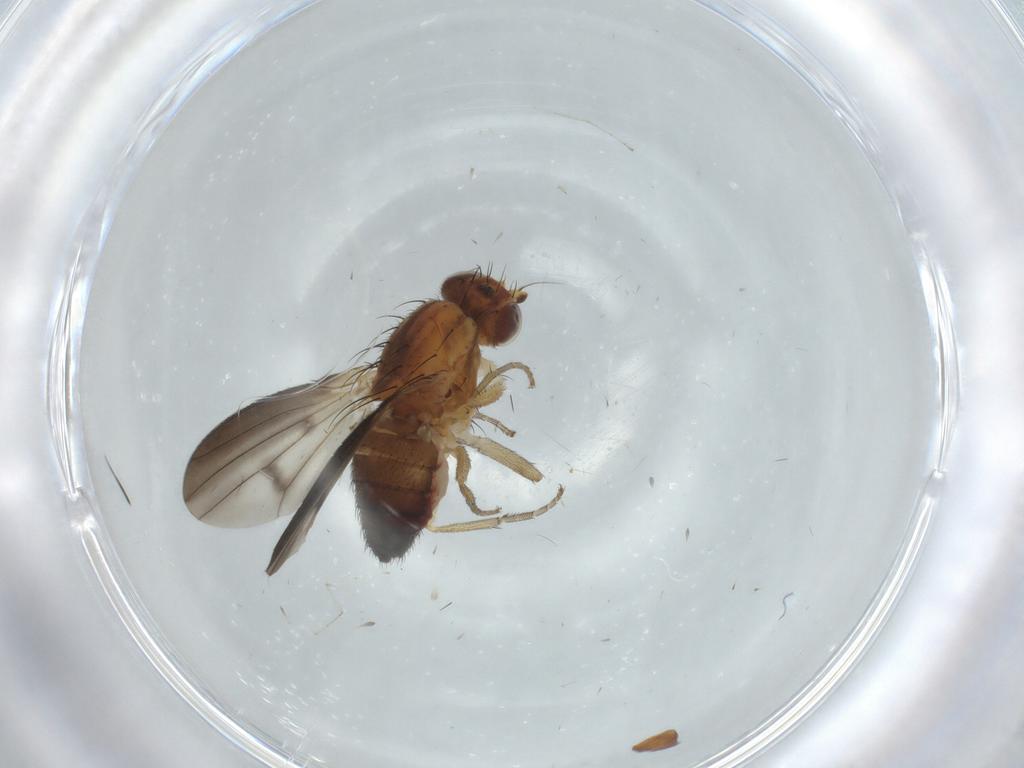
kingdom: Animalia
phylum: Arthropoda
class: Insecta
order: Diptera
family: Heleomyzidae
